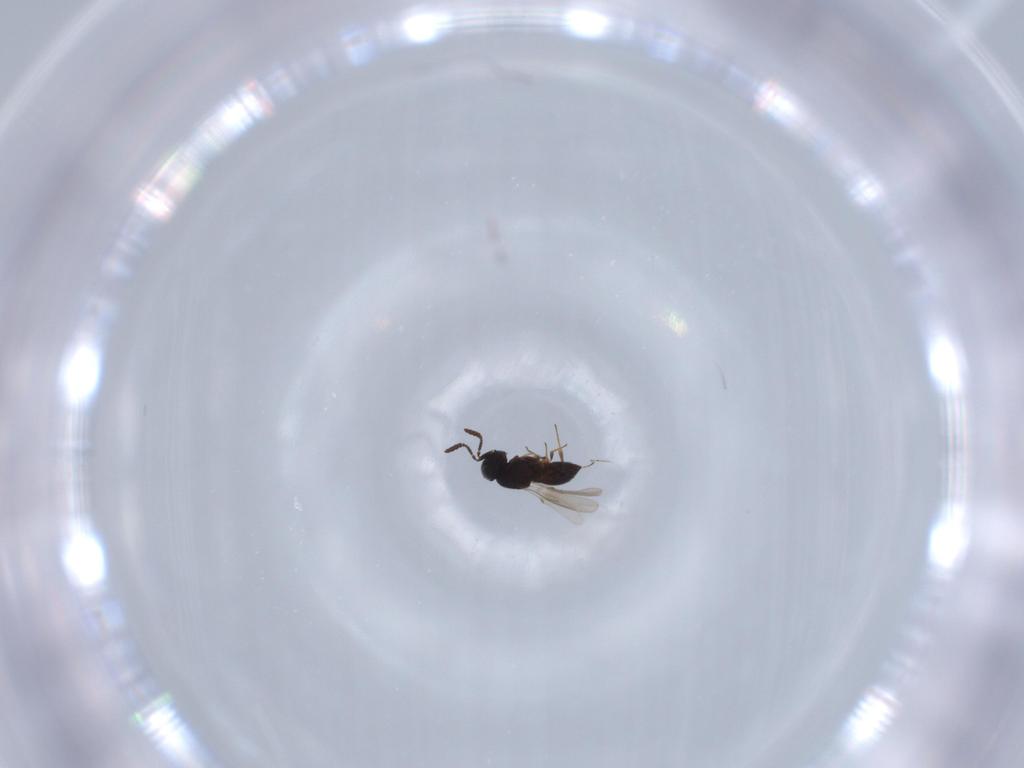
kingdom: Animalia
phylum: Arthropoda
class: Insecta
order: Hymenoptera
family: Scelionidae
